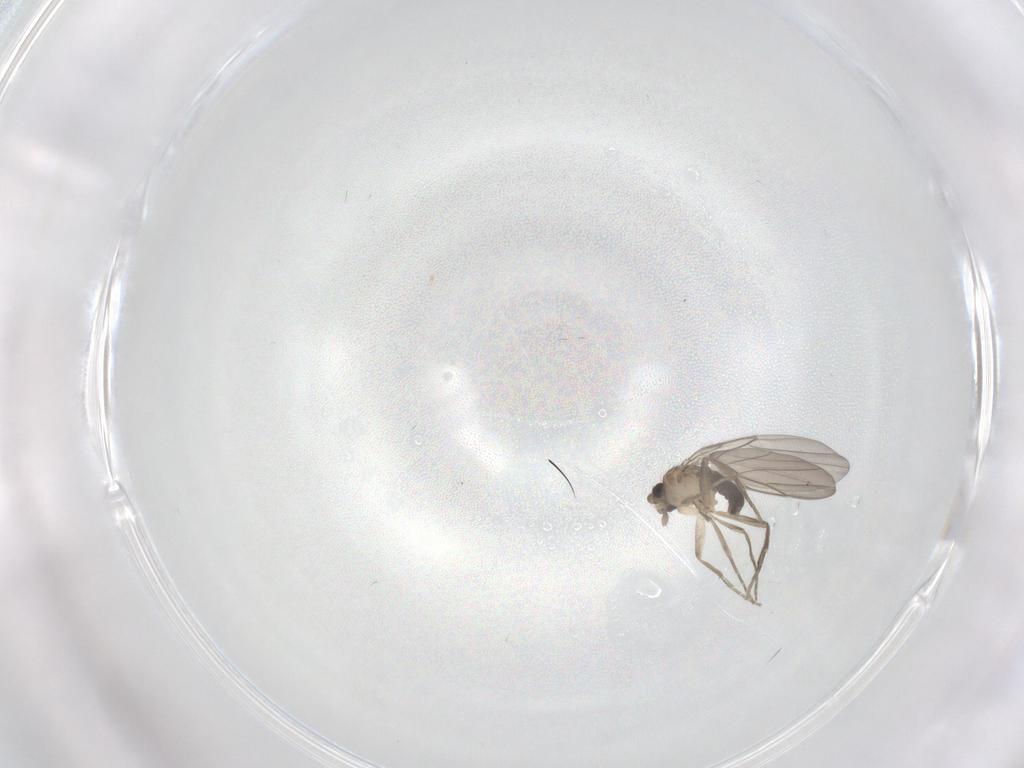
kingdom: Animalia
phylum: Arthropoda
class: Insecta
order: Diptera
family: Phoridae
